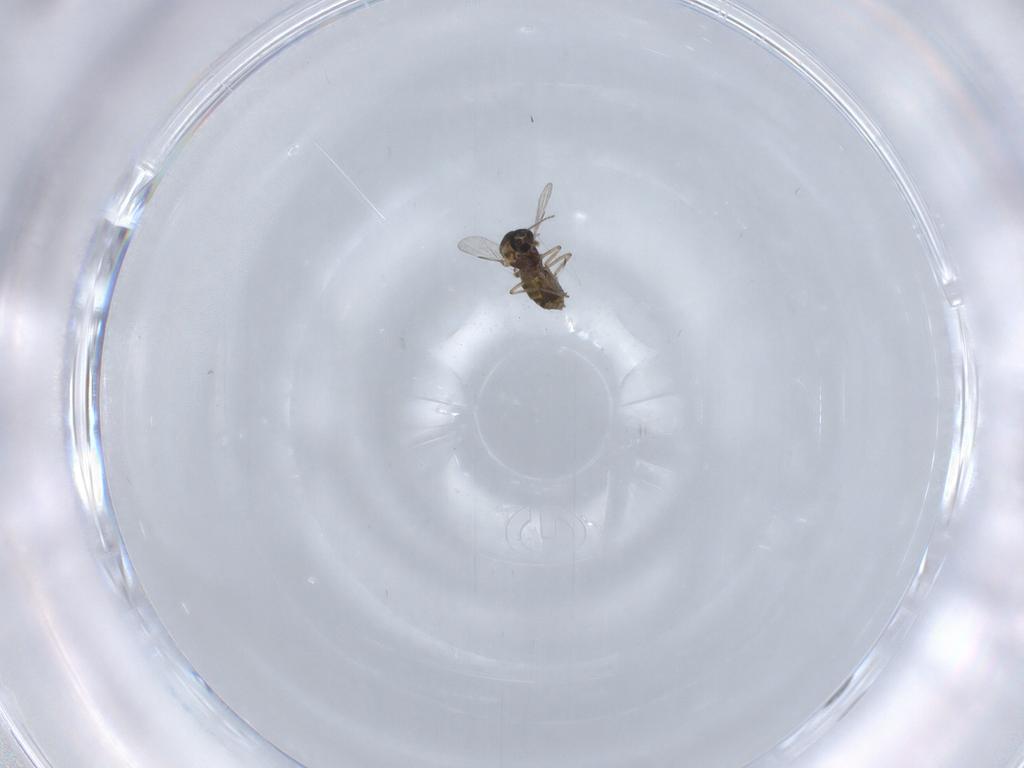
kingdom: Animalia
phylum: Arthropoda
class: Insecta
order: Diptera
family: Ceratopogonidae
